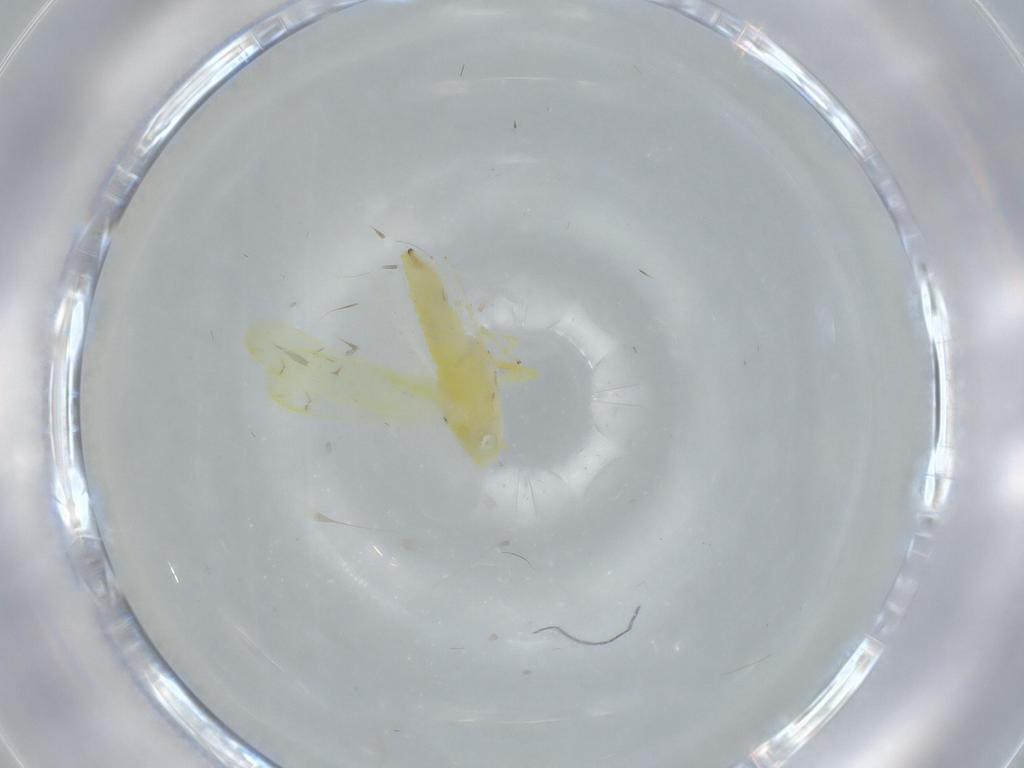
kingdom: Animalia
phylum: Arthropoda
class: Insecta
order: Hemiptera
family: Cicadellidae
